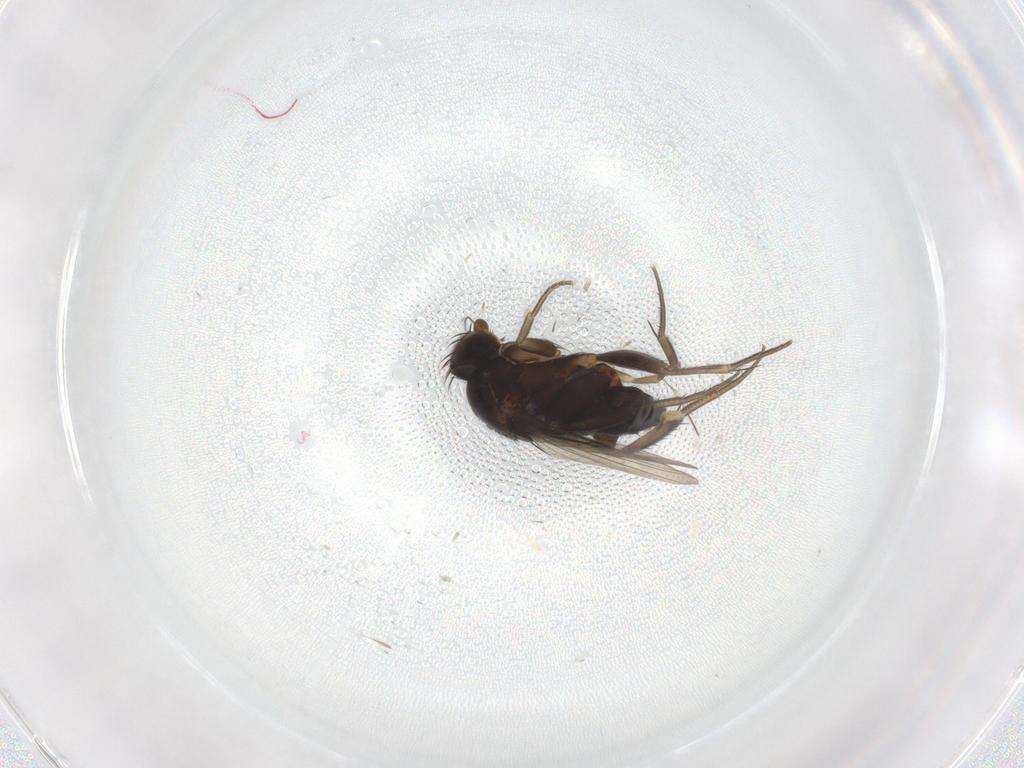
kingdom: Animalia
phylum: Arthropoda
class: Insecta
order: Diptera
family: Phoridae
